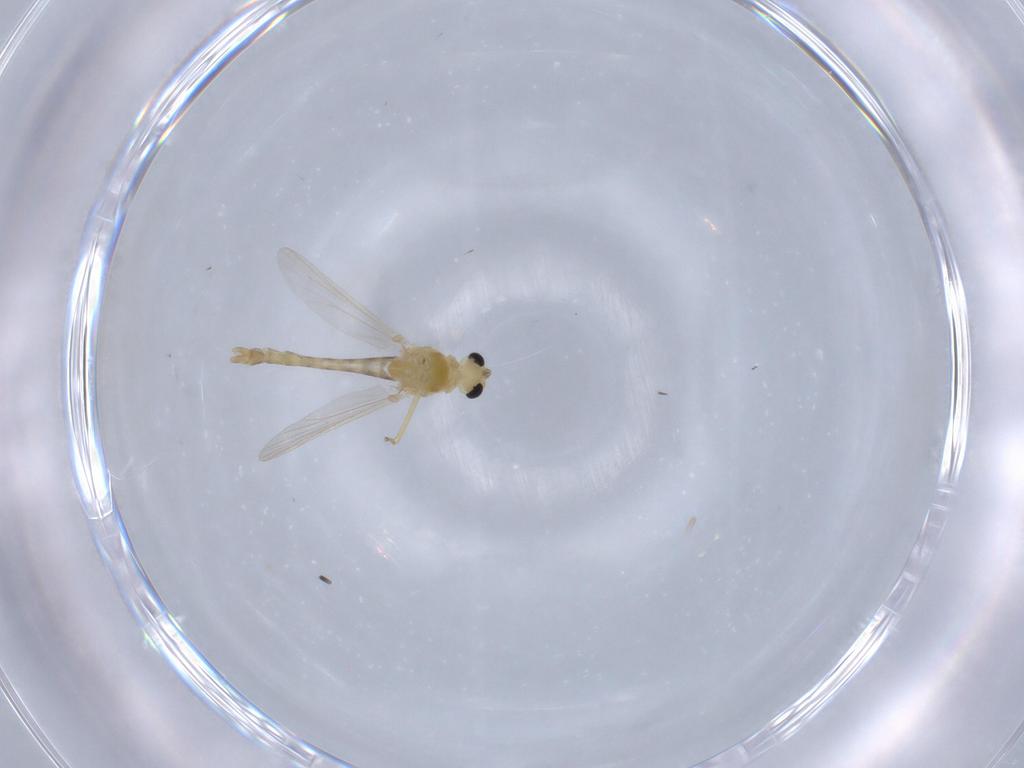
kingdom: Animalia
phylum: Arthropoda
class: Insecta
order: Diptera
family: Chironomidae
